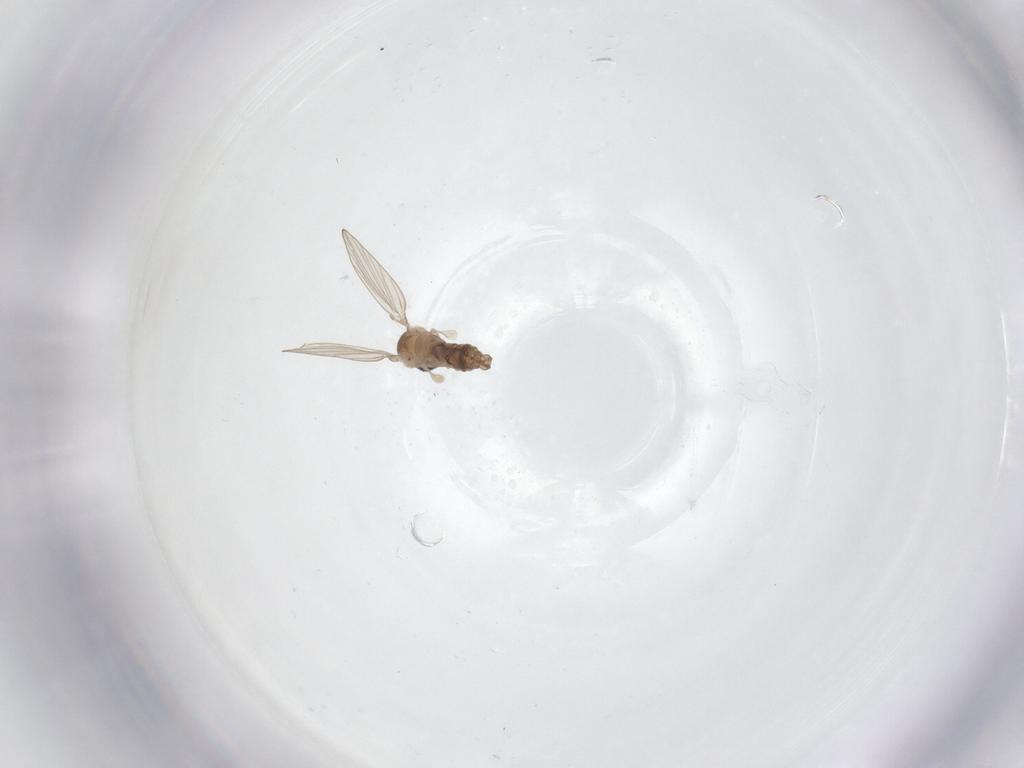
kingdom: Animalia
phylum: Arthropoda
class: Insecta
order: Diptera
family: Psychodidae
